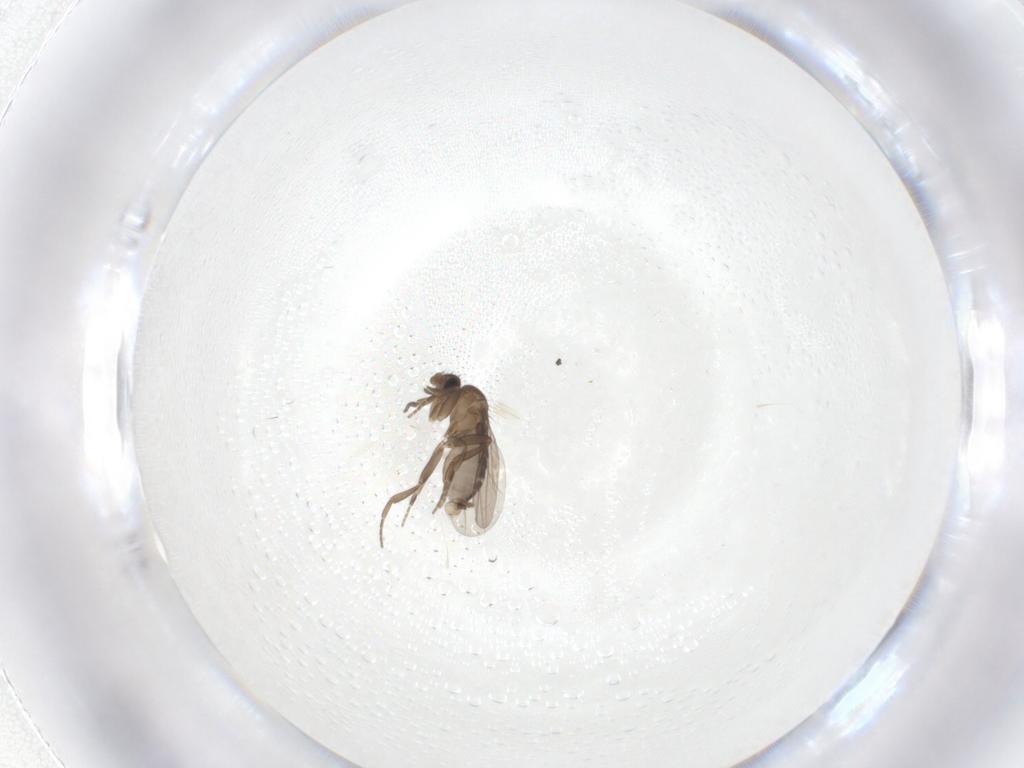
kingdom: Animalia
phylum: Arthropoda
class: Insecta
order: Diptera
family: Phoridae
